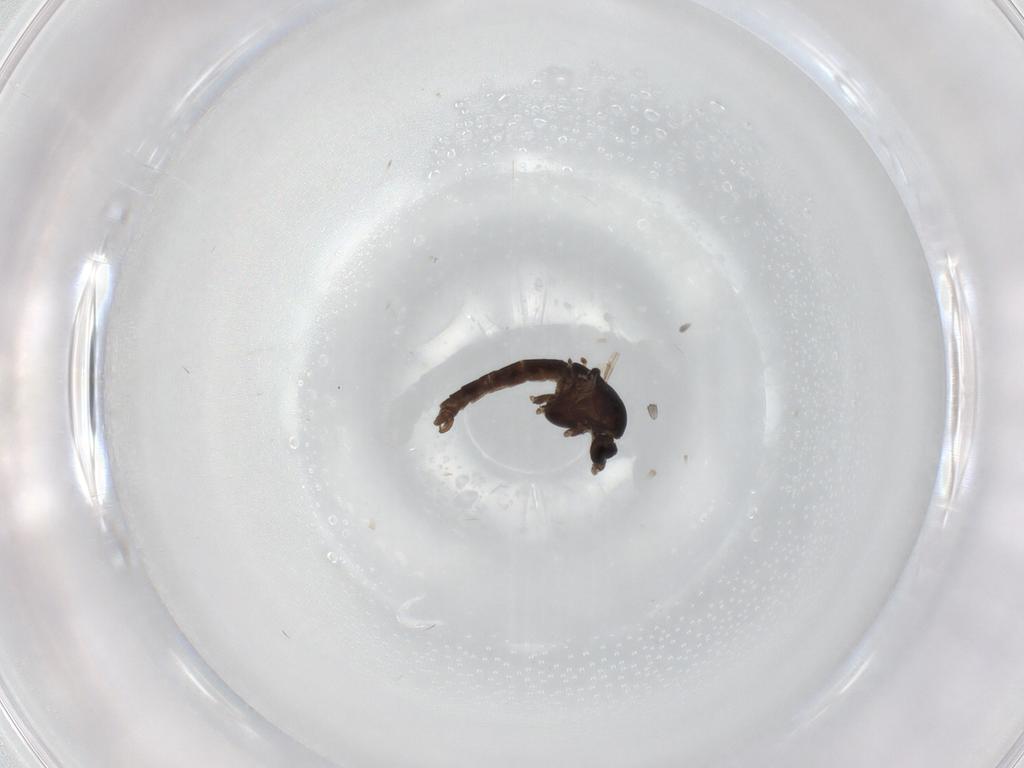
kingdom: Animalia
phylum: Arthropoda
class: Insecta
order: Diptera
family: Chironomidae
